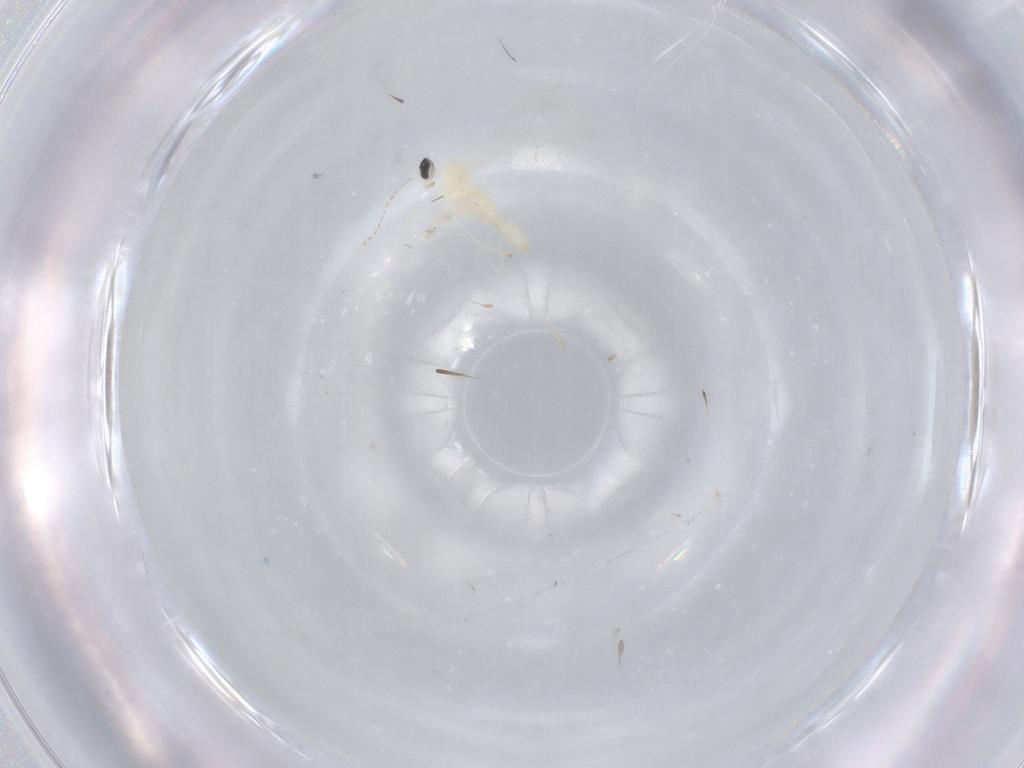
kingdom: Animalia
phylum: Arthropoda
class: Insecta
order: Diptera
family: Cecidomyiidae
